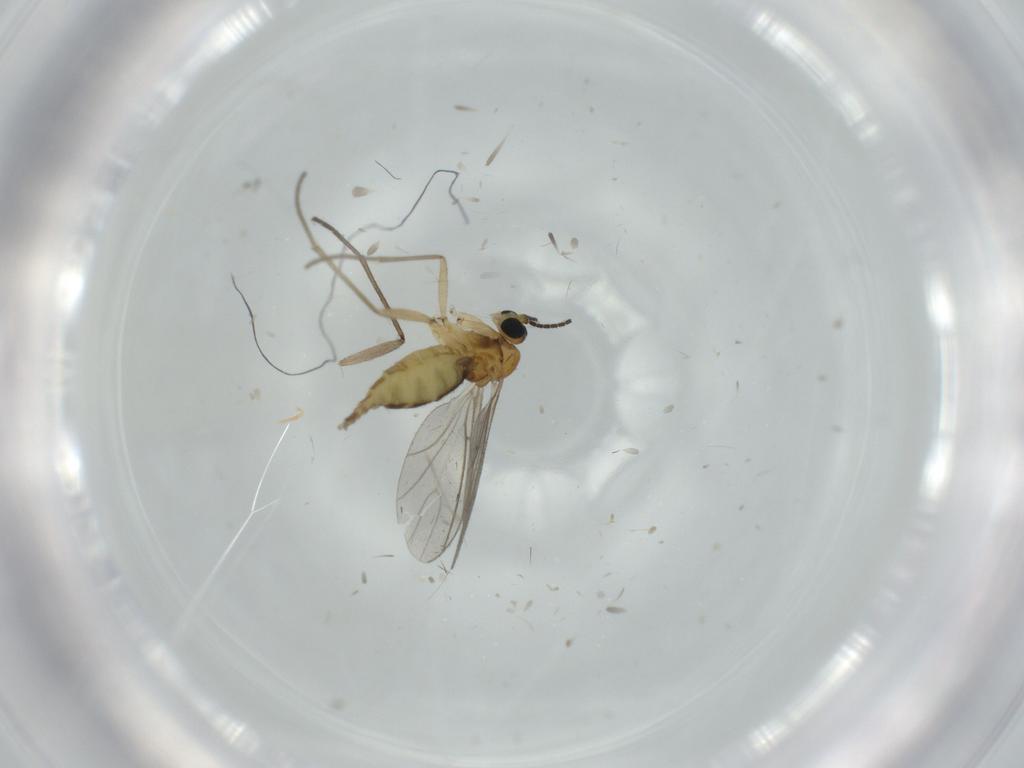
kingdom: Animalia
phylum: Arthropoda
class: Insecta
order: Diptera
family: Sciaridae
